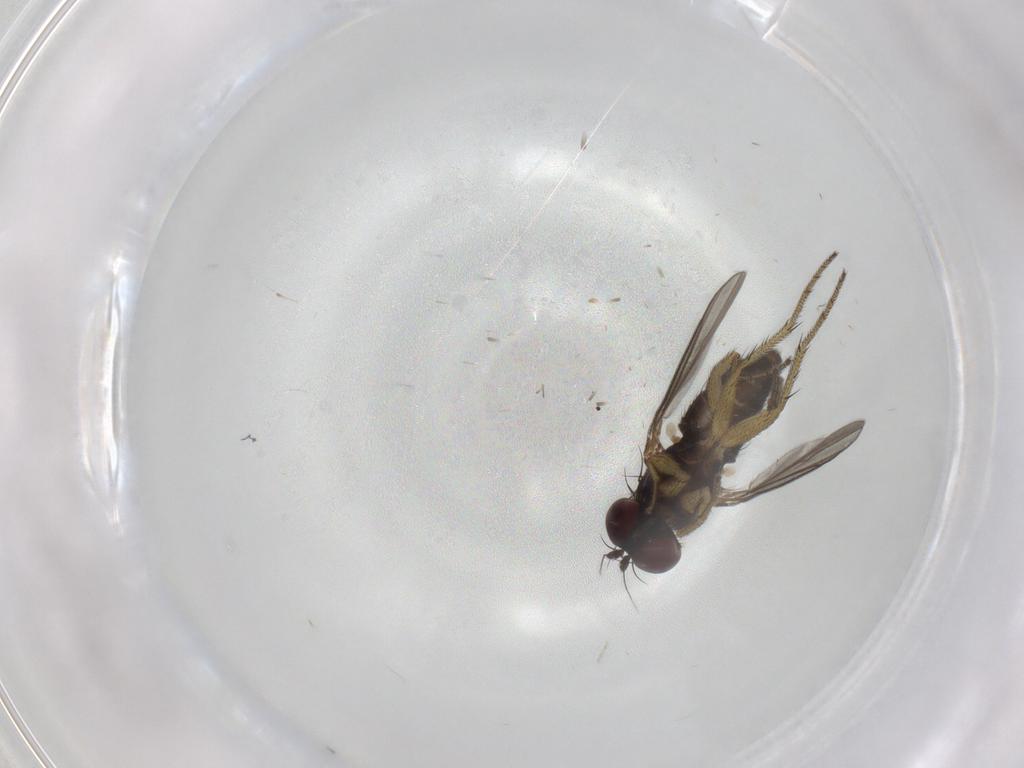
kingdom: Animalia
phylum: Arthropoda
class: Insecta
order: Diptera
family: Dolichopodidae
